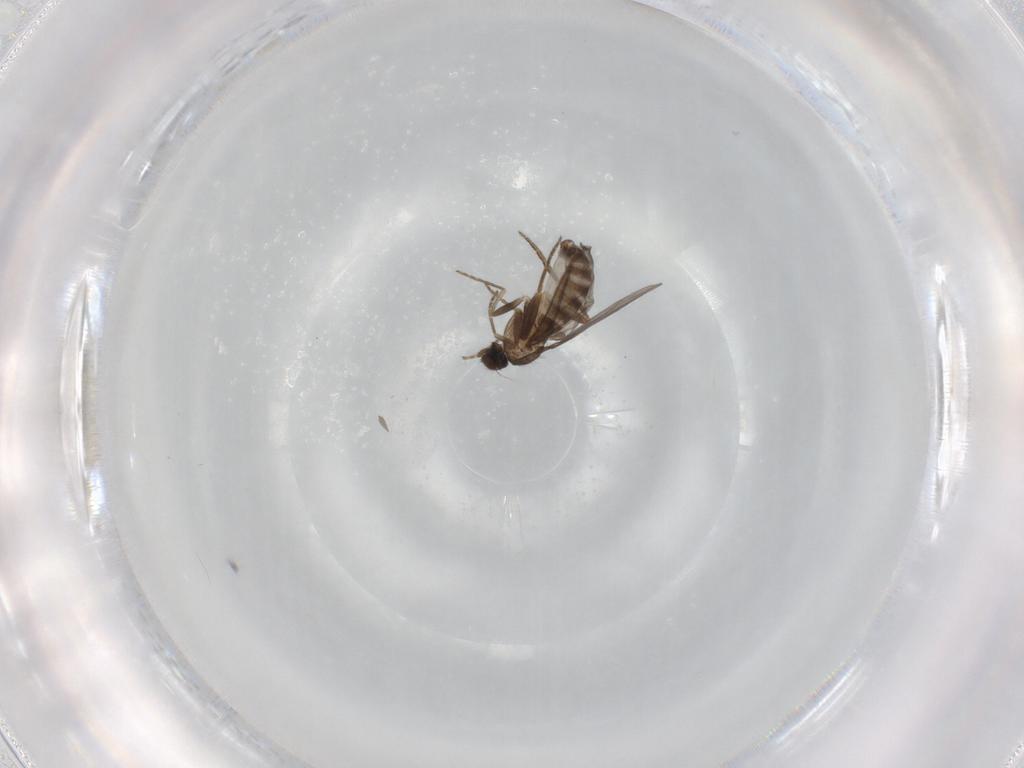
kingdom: Animalia
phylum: Arthropoda
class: Insecta
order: Diptera
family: Phoridae
